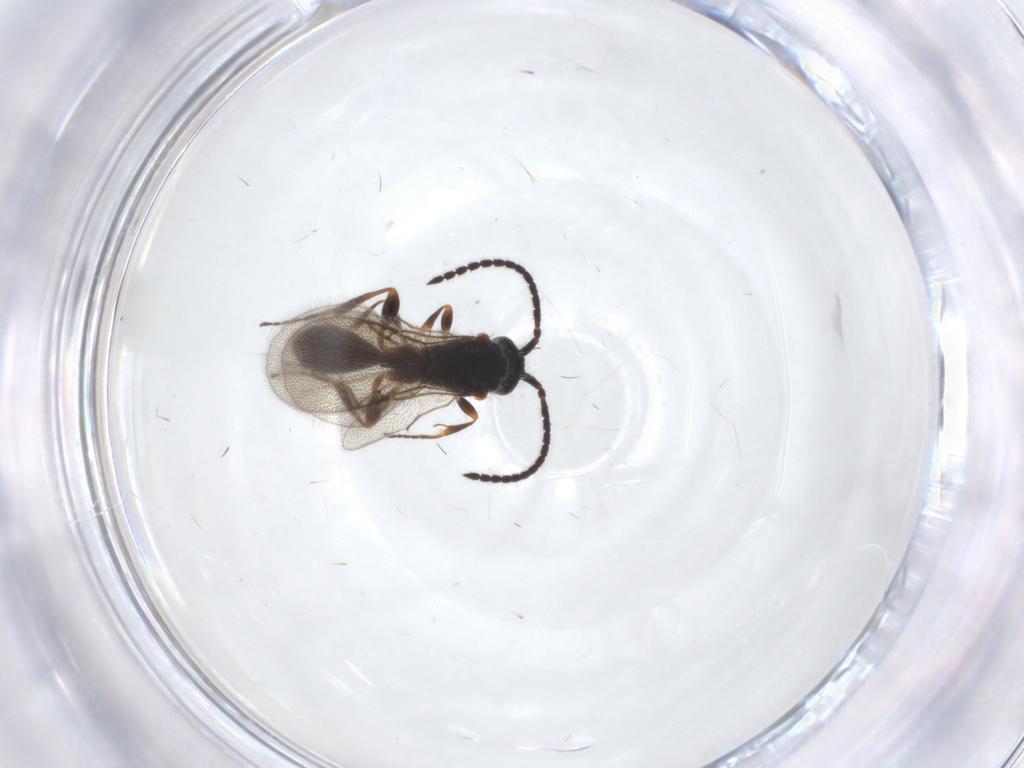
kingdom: Animalia
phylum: Arthropoda
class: Insecta
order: Hymenoptera
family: Diapriidae
